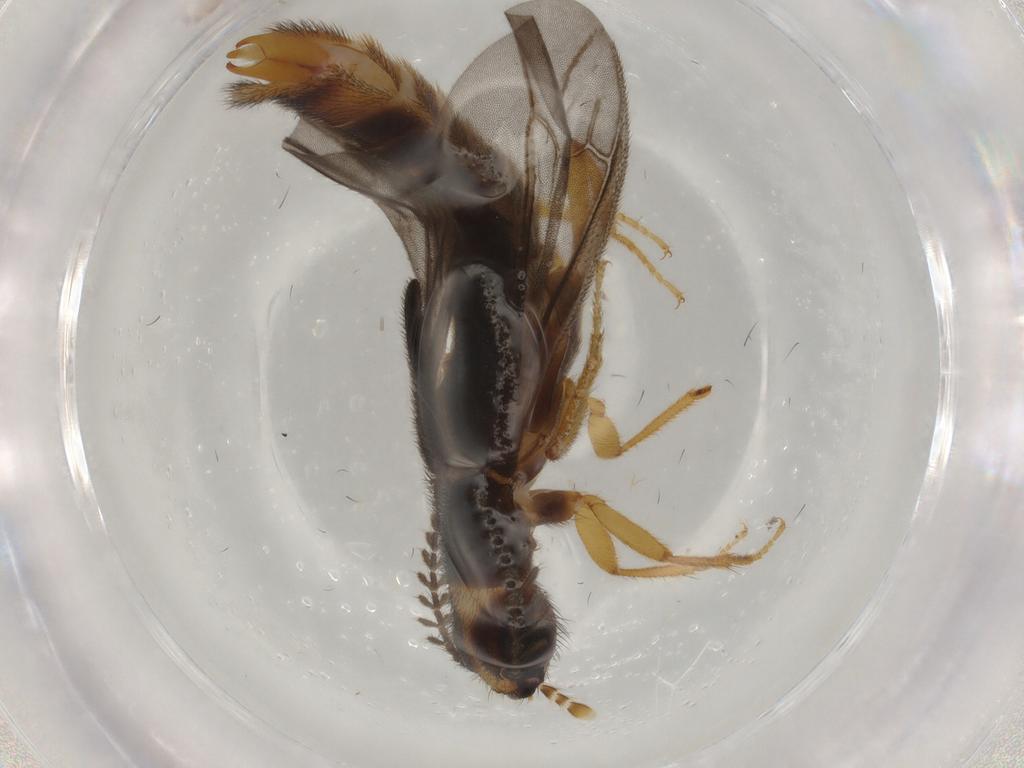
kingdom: Animalia
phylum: Arthropoda
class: Insecta
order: Coleoptera
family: Phengodidae
